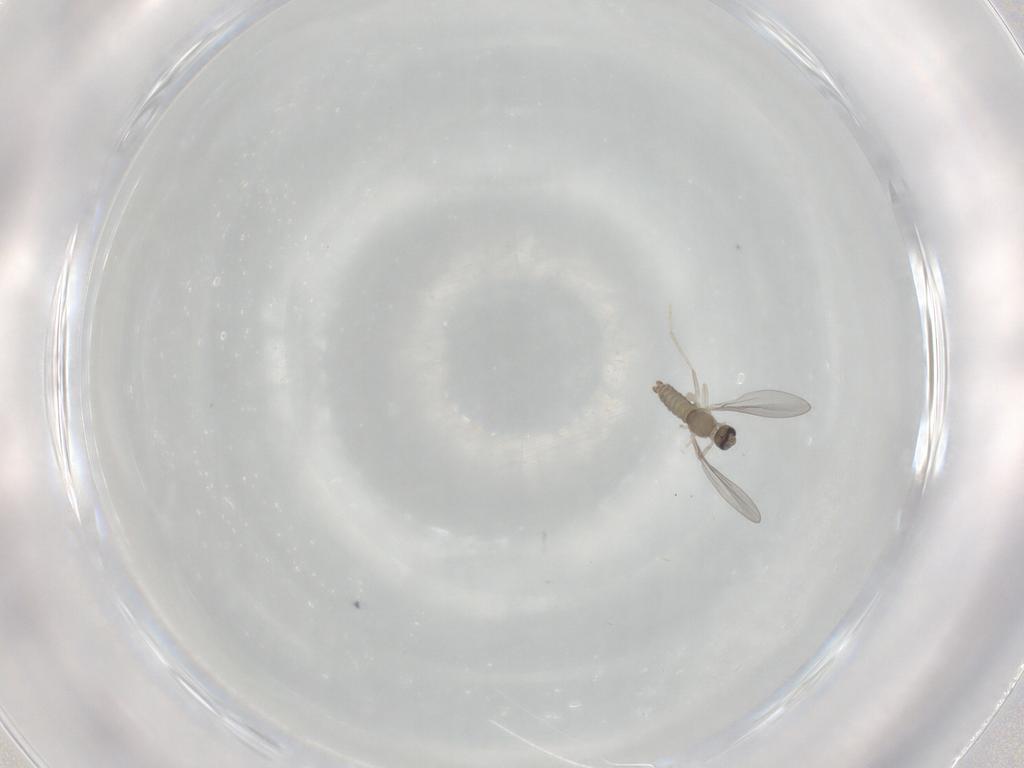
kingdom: Animalia
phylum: Arthropoda
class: Insecta
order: Diptera
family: Cecidomyiidae
